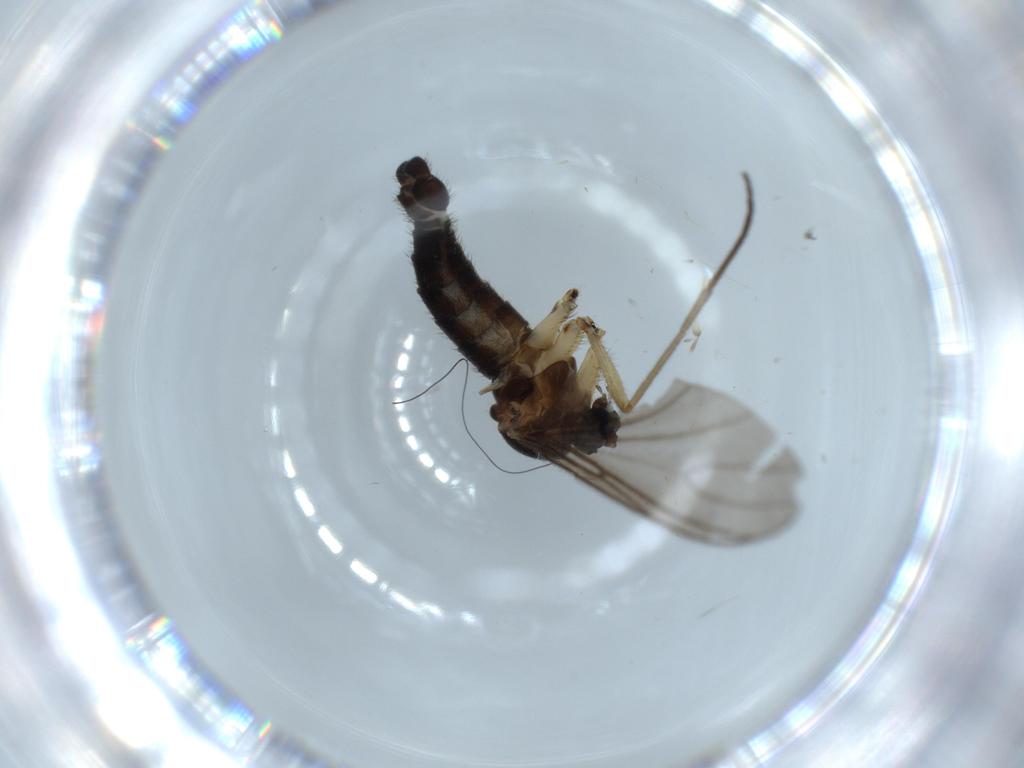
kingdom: Animalia
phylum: Arthropoda
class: Insecta
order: Diptera
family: Sciaridae
